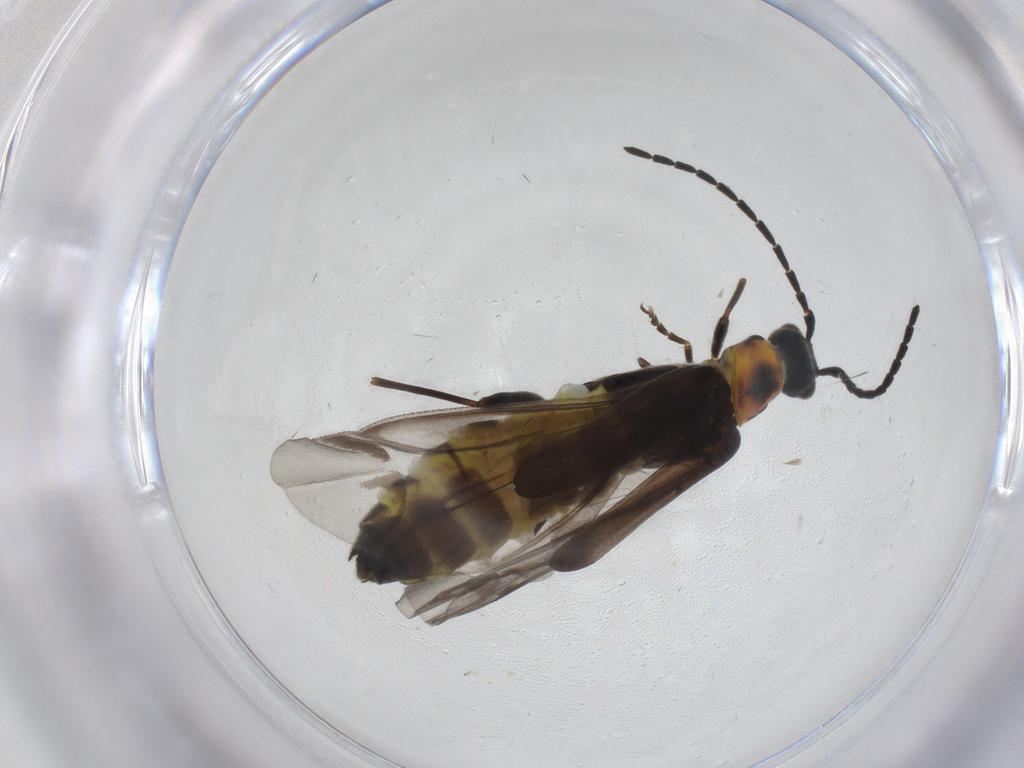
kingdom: Animalia
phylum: Arthropoda
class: Insecta
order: Coleoptera
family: Cantharidae
